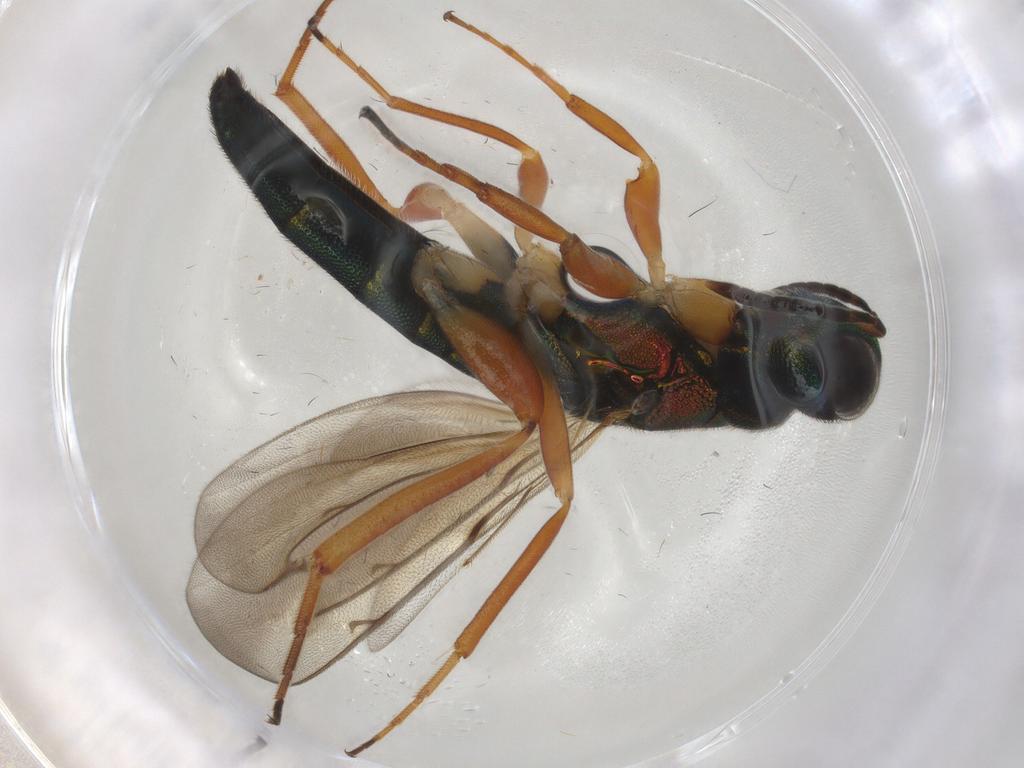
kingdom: Animalia
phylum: Arthropoda
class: Insecta
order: Hymenoptera
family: Lyciscidae
